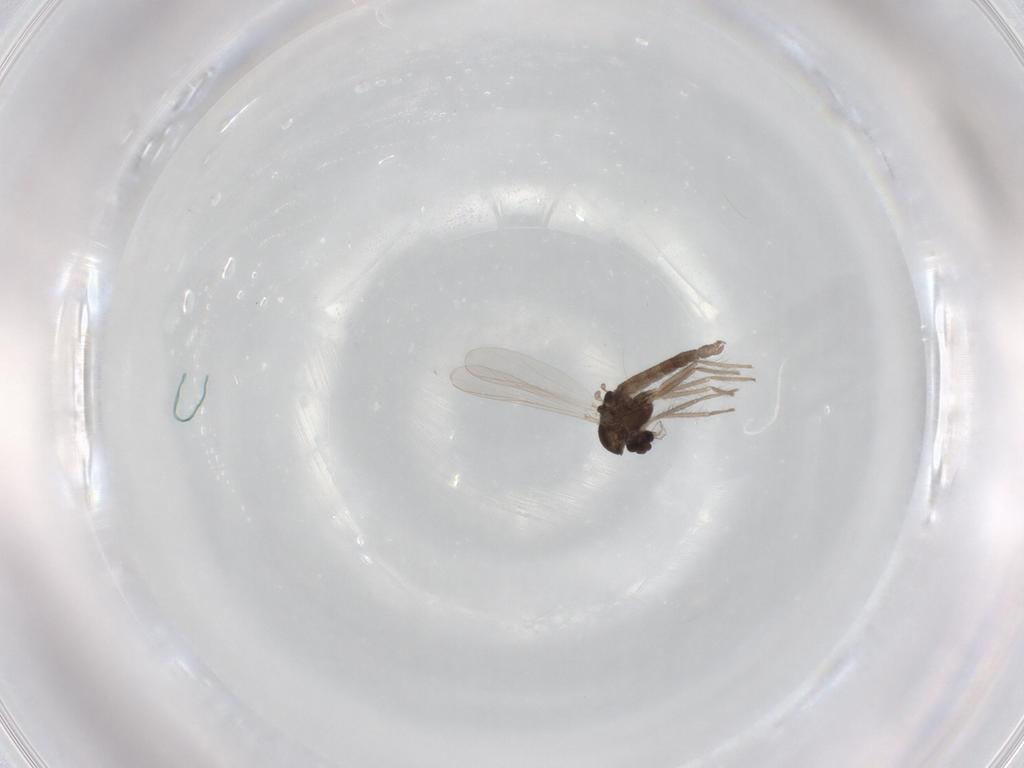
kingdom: Animalia
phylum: Arthropoda
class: Insecta
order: Diptera
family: Chironomidae
